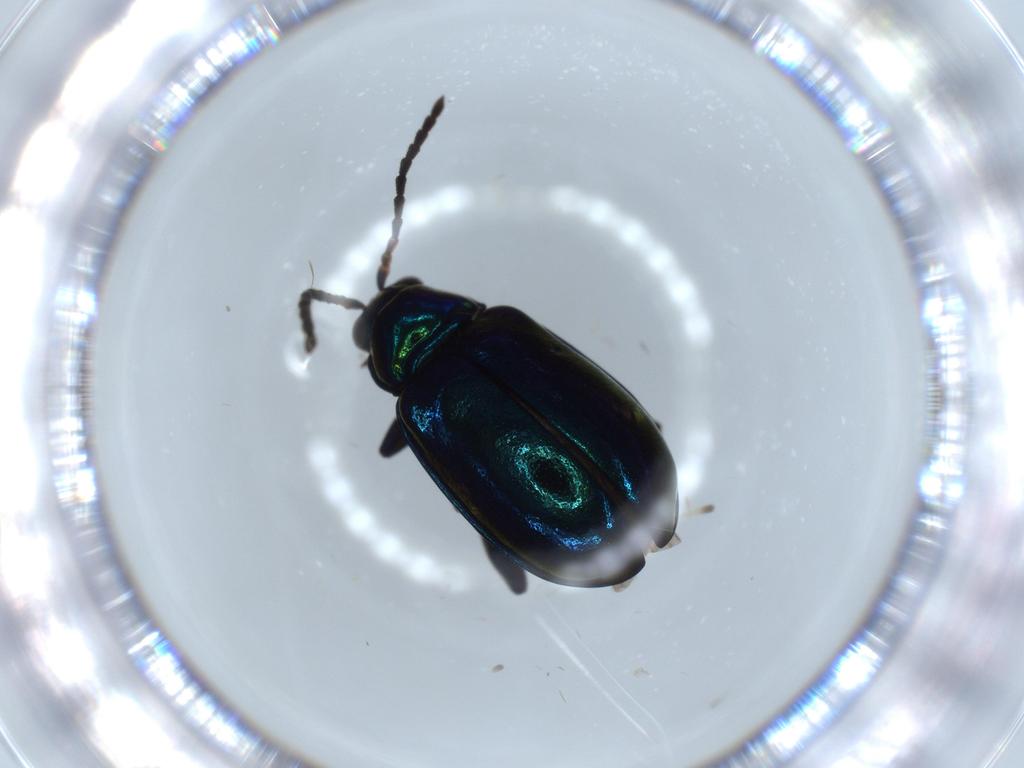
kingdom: Animalia
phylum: Arthropoda
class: Insecta
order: Coleoptera
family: Chrysomelidae
